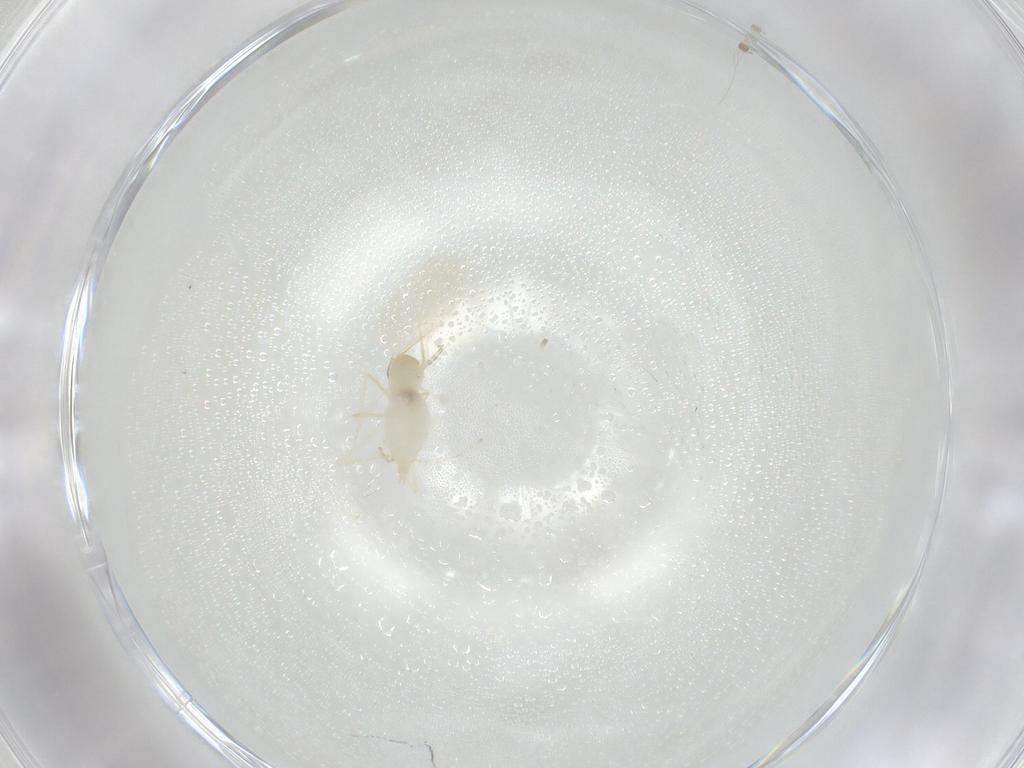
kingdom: Animalia
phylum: Arthropoda
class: Insecta
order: Diptera
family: Cecidomyiidae
